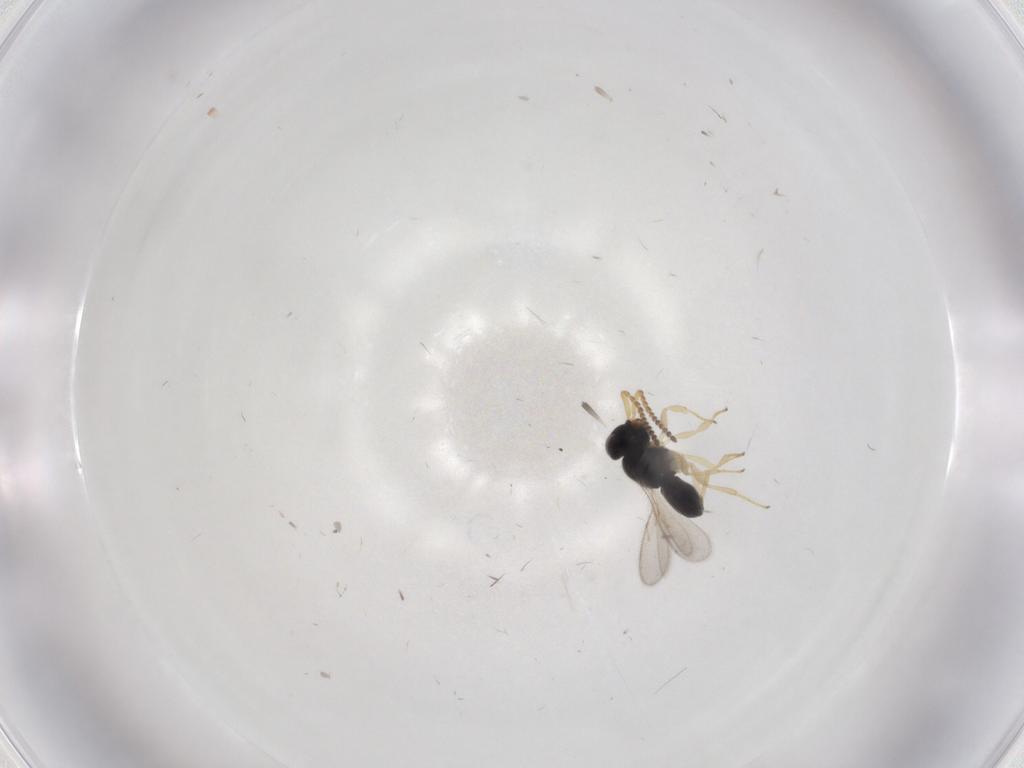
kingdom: Animalia
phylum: Arthropoda
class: Insecta
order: Hymenoptera
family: Scelionidae
